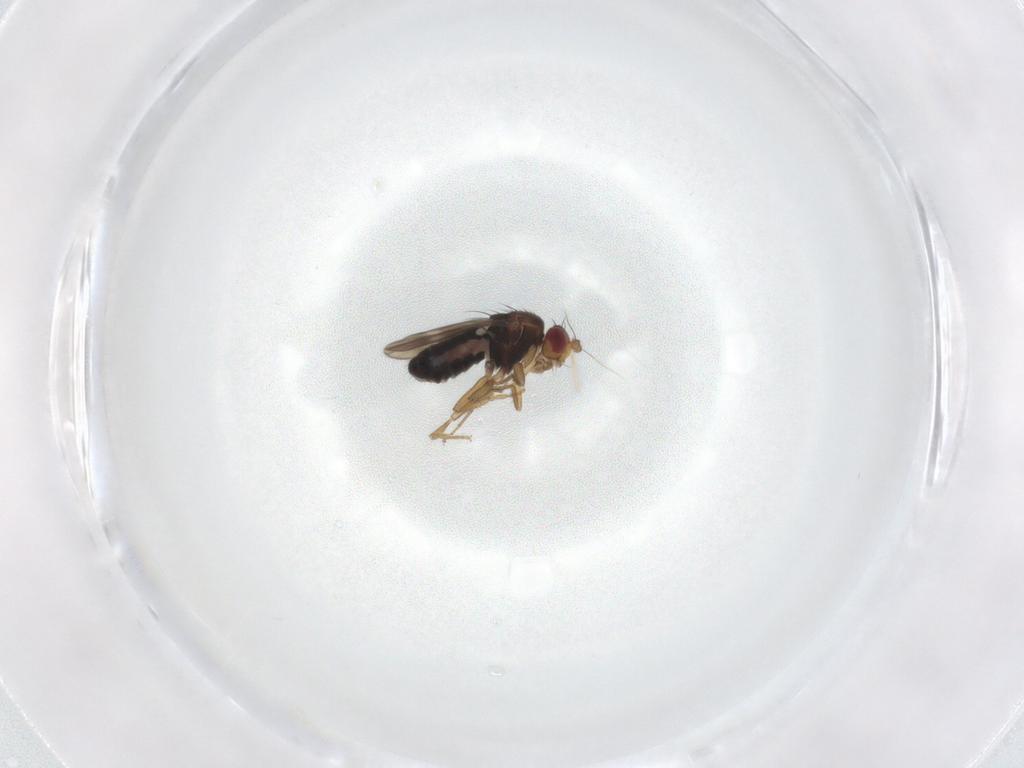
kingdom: Animalia
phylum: Arthropoda
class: Insecta
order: Diptera
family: Sphaeroceridae
